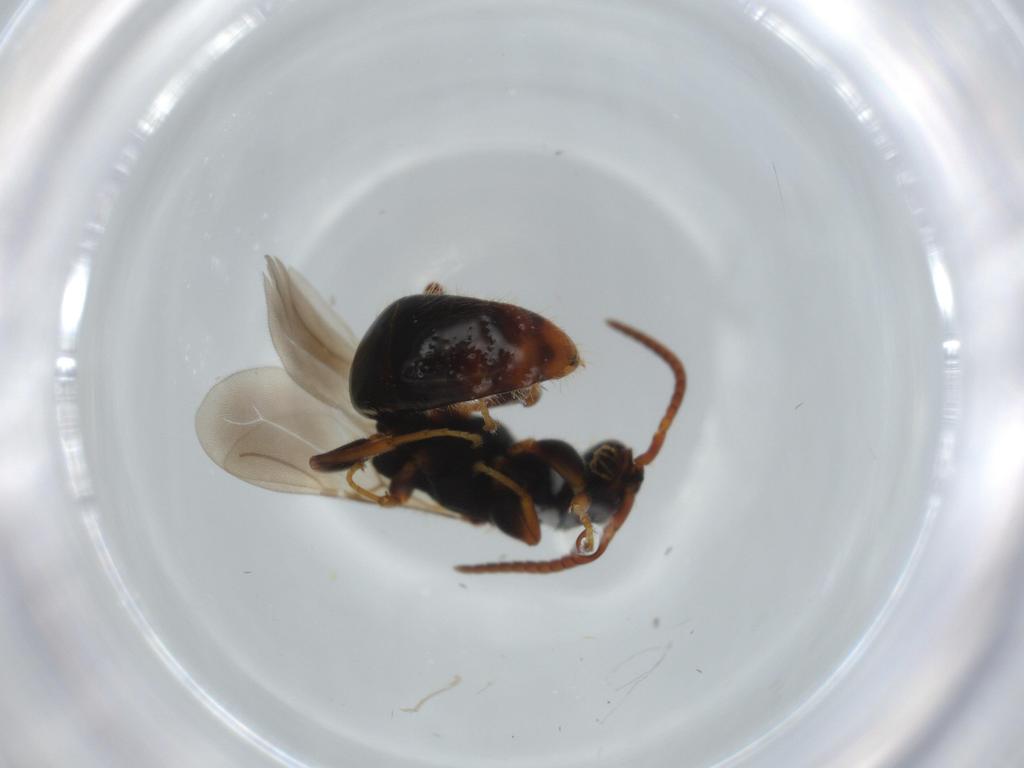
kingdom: Animalia
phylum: Arthropoda
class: Insecta
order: Hymenoptera
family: Bethylidae
